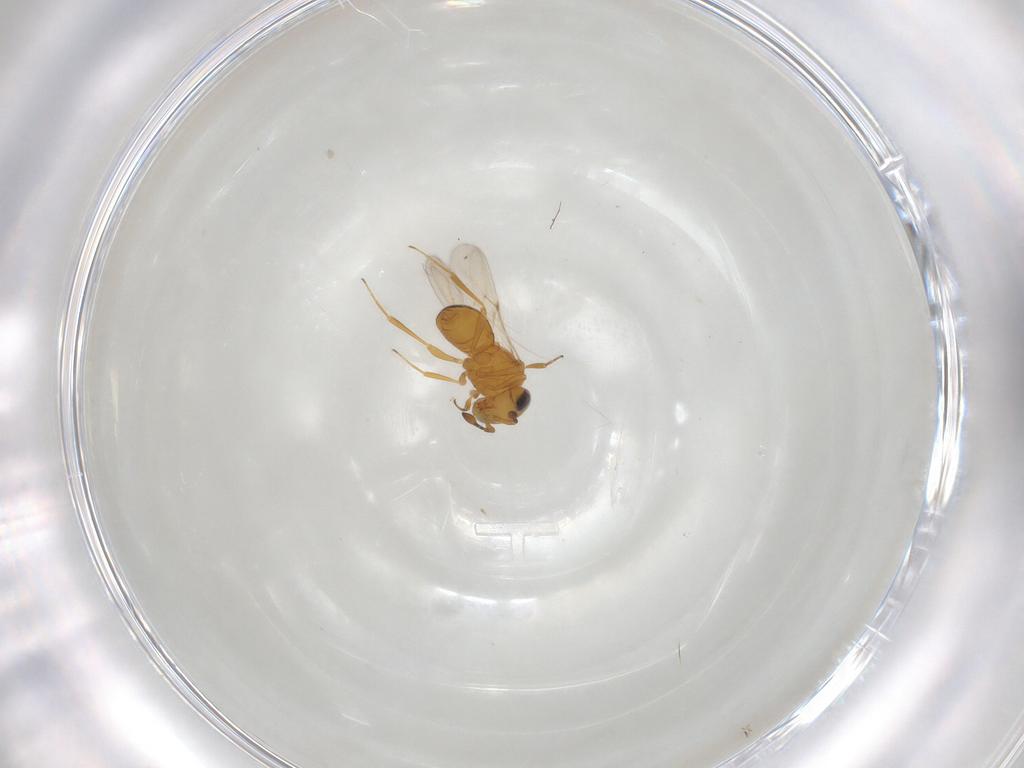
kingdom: Animalia
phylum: Arthropoda
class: Insecta
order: Hymenoptera
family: Scelionidae
